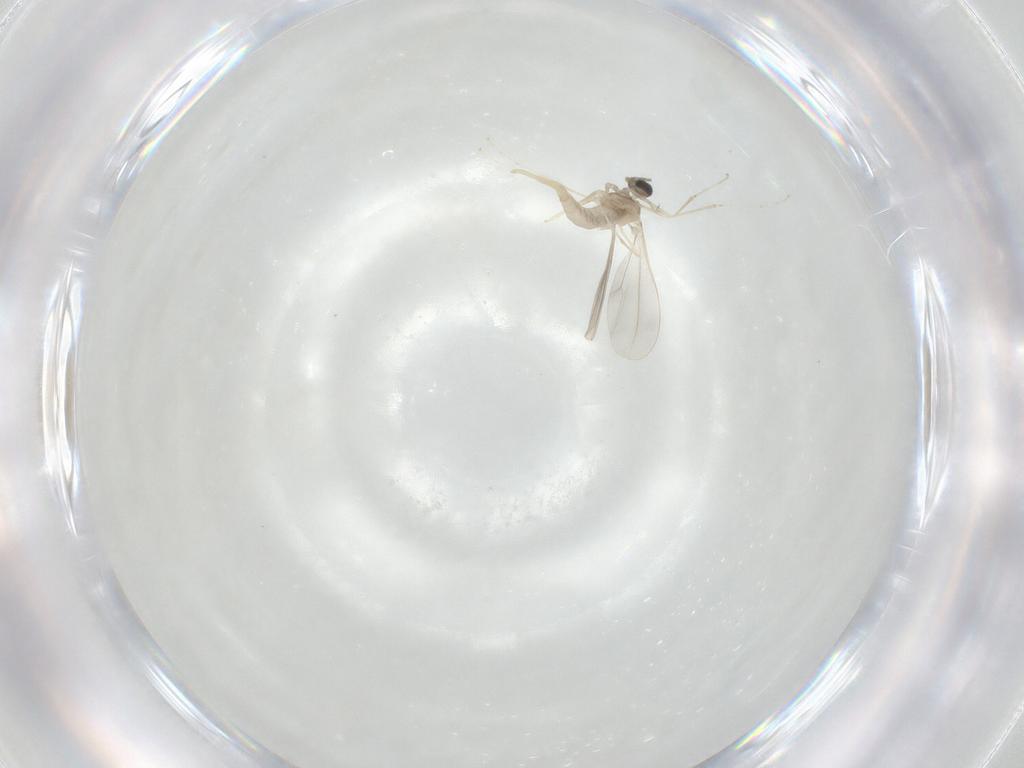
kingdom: Animalia
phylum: Arthropoda
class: Insecta
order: Diptera
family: Cecidomyiidae
